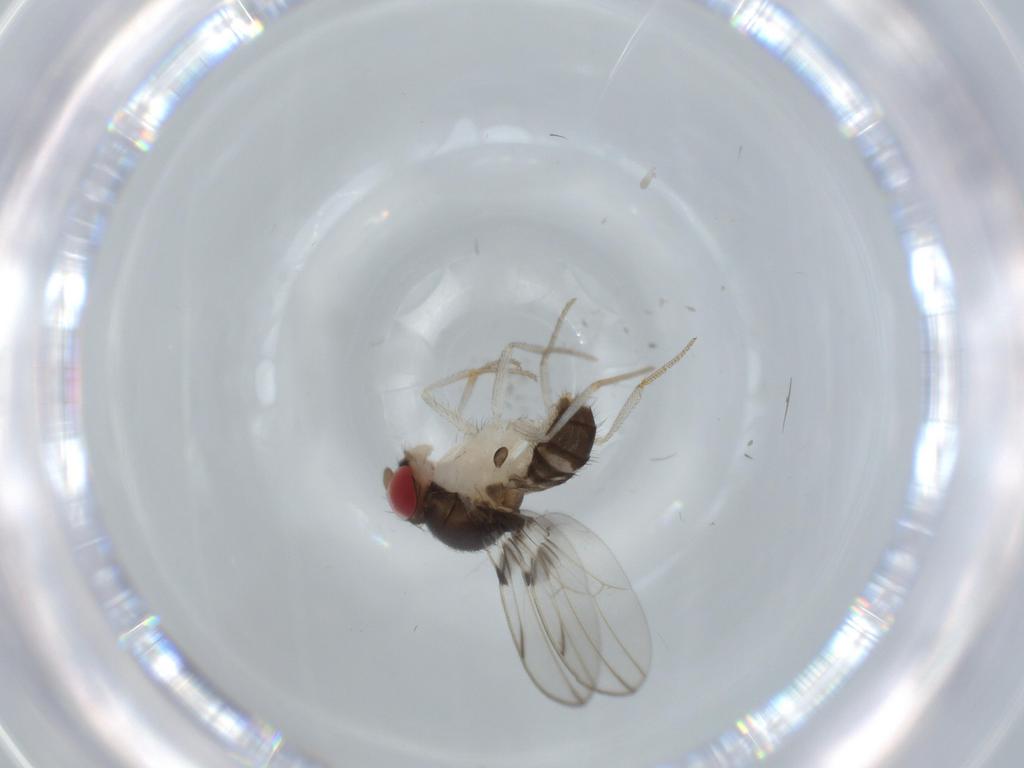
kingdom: Animalia
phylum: Arthropoda
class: Insecta
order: Diptera
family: Drosophilidae
